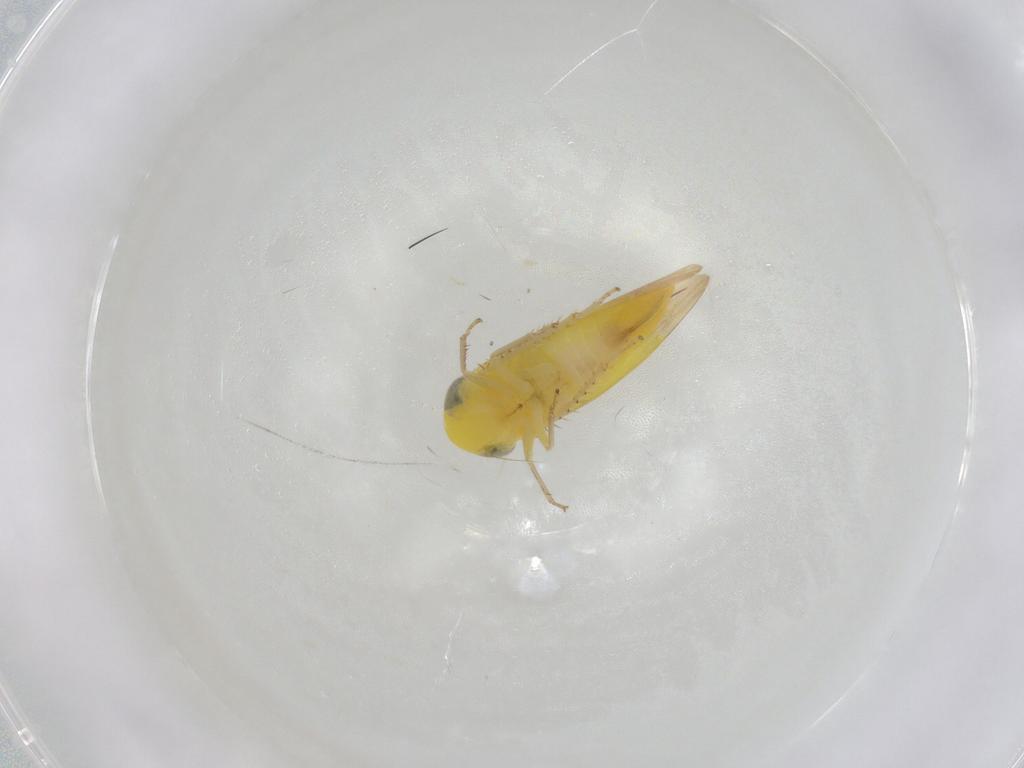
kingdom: Animalia
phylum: Arthropoda
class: Insecta
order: Hemiptera
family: Cicadellidae
